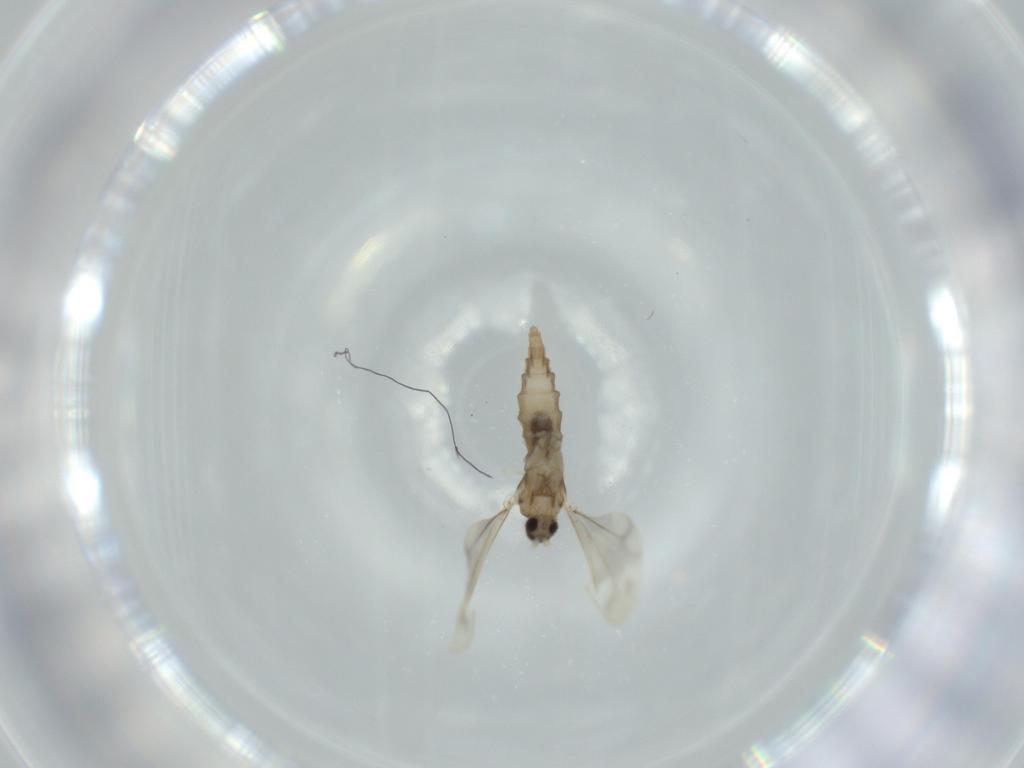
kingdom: Animalia
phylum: Arthropoda
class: Insecta
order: Diptera
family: Cecidomyiidae
